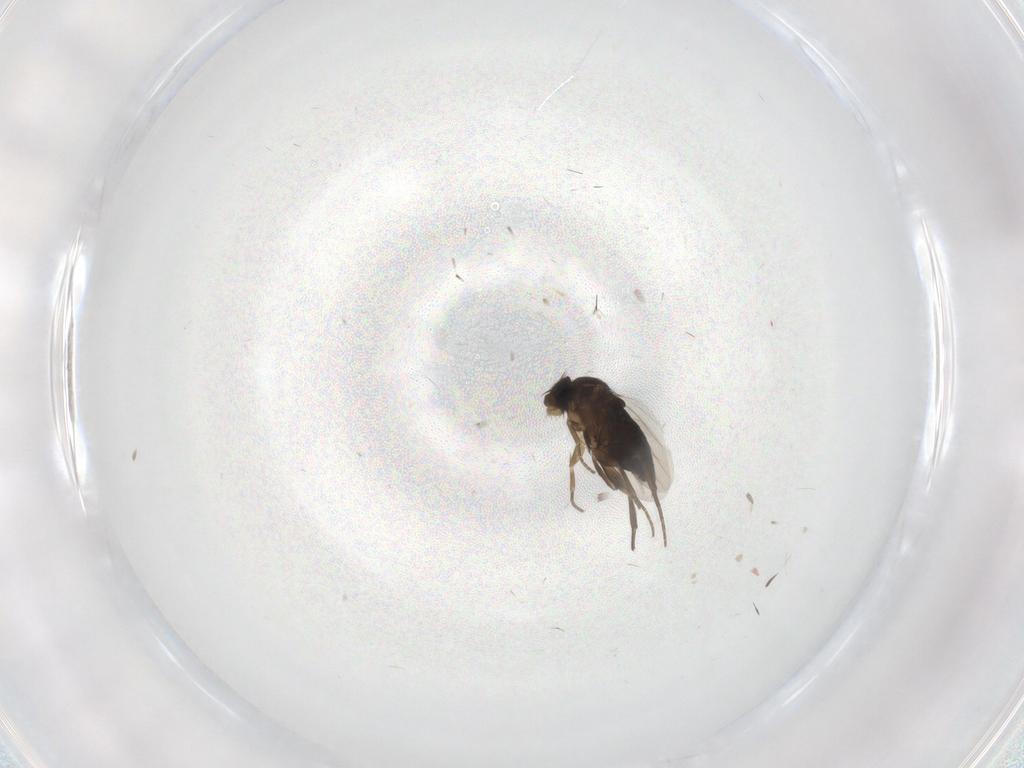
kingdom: Animalia
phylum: Arthropoda
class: Insecta
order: Diptera
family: Phoridae
